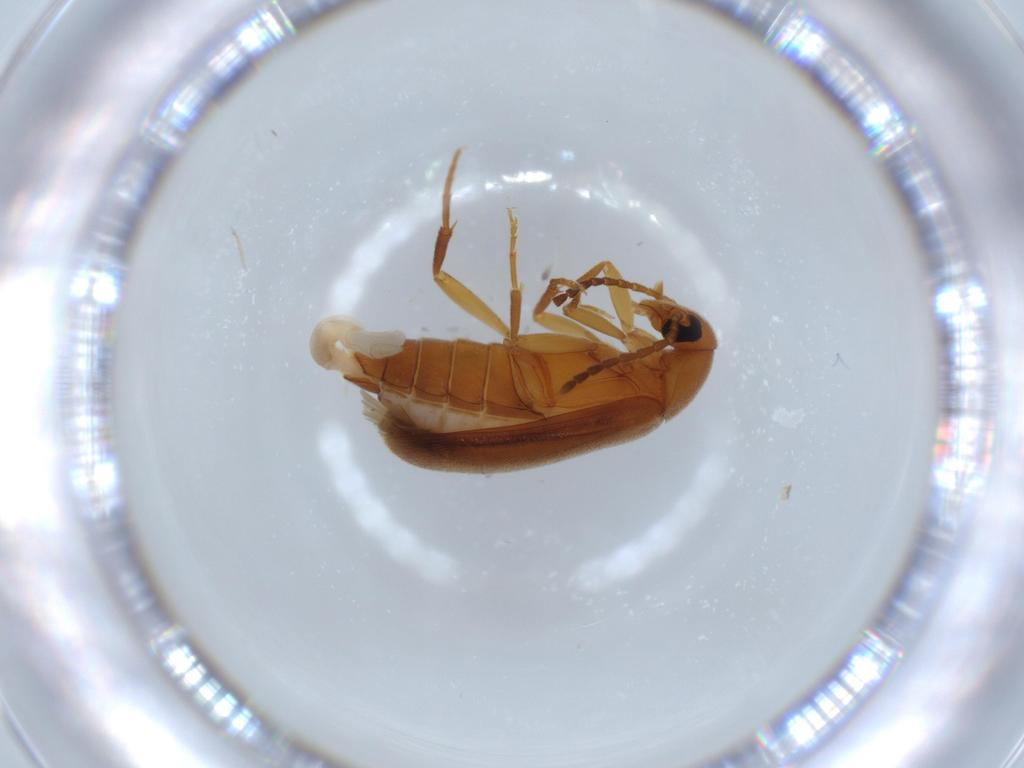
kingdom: Animalia
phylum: Arthropoda
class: Insecta
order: Coleoptera
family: Scraptiidae
